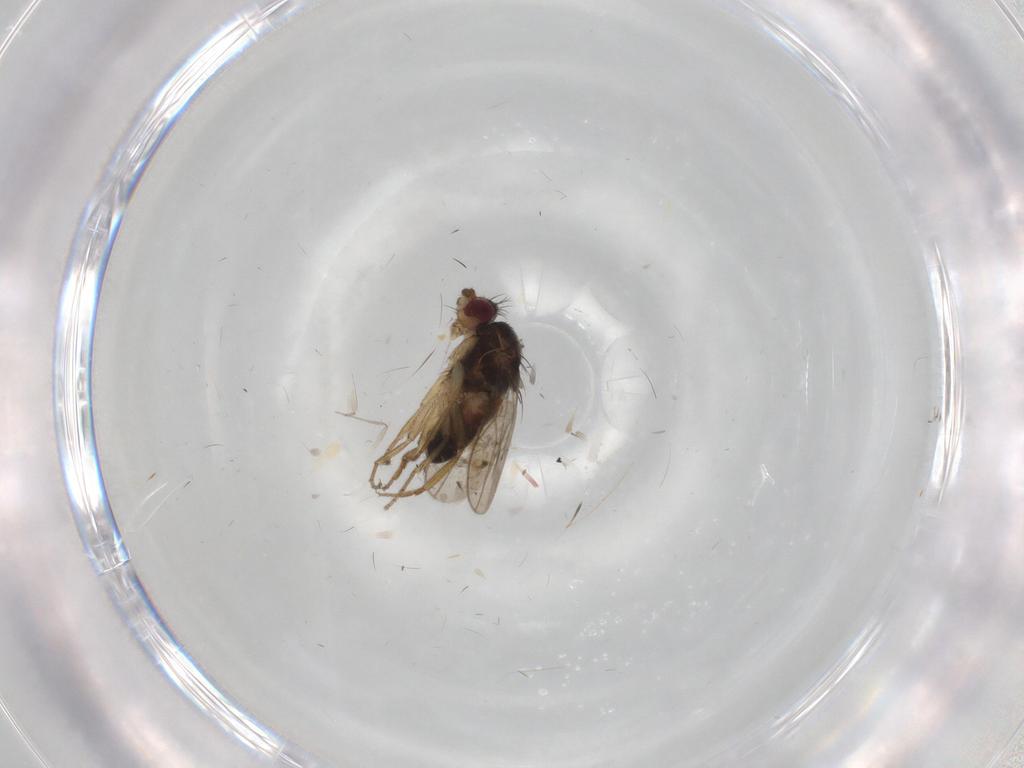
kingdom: Animalia
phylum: Arthropoda
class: Insecta
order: Diptera
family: Sphaeroceridae
